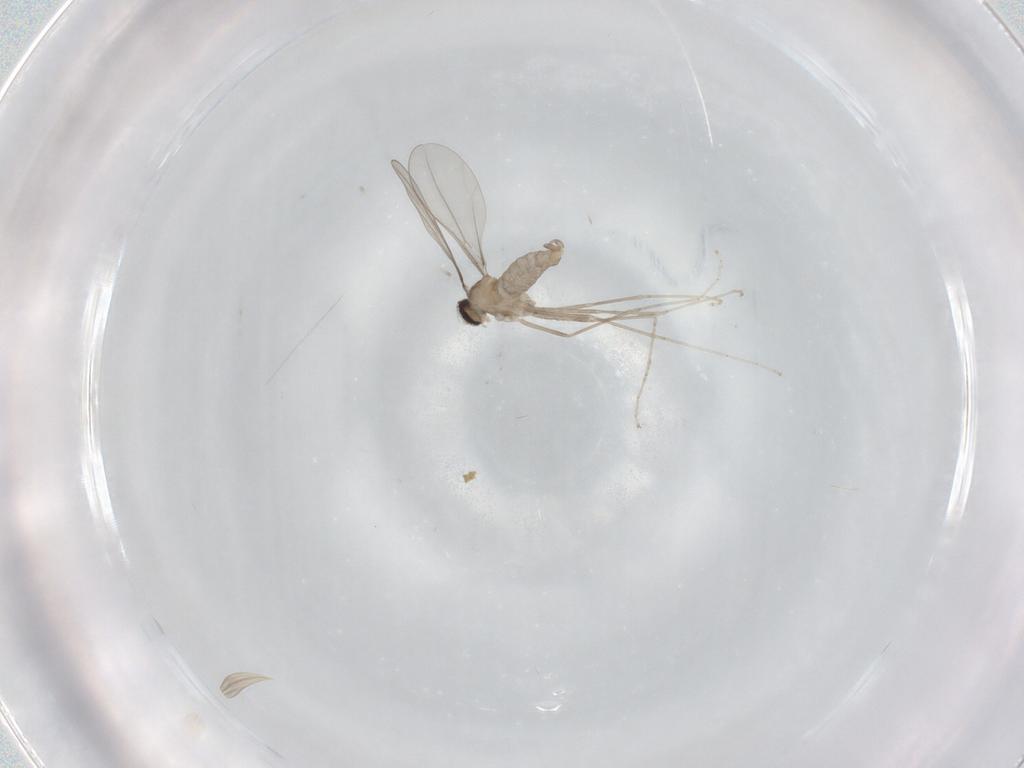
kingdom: Animalia
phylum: Arthropoda
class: Insecta
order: Diptera
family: Cecidomyiidae
